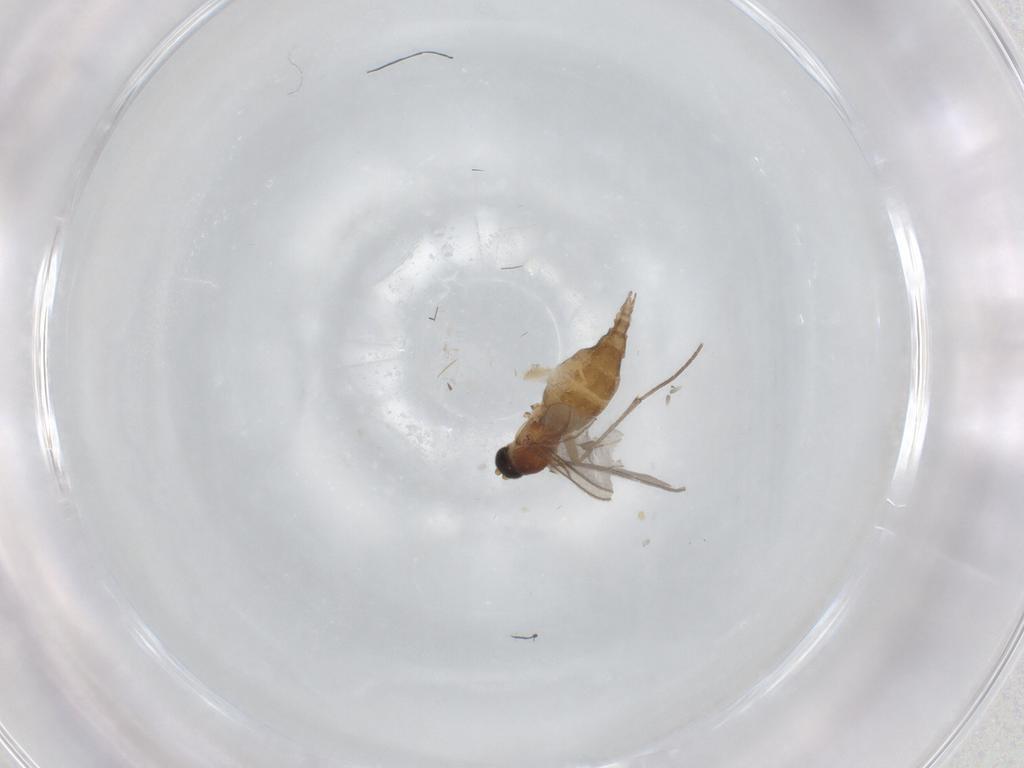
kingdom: Animalia
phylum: Arthropoda
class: Insecta
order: Diptera
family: Sciaridae
